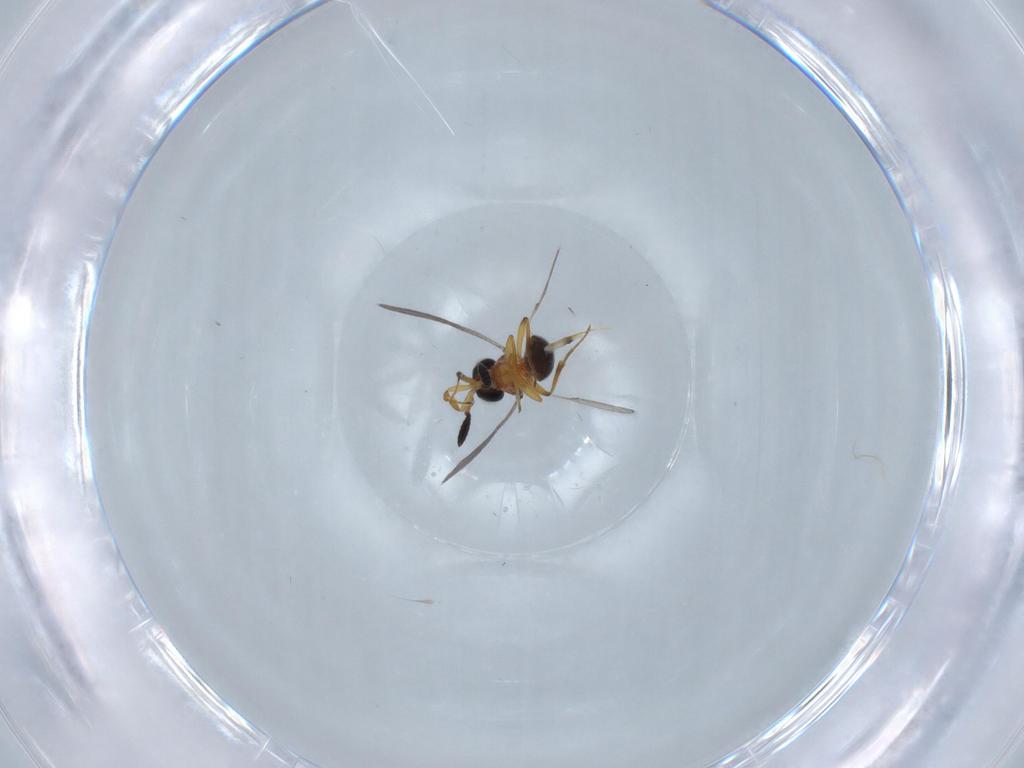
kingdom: Animalia
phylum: Arthropoda
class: Insecta
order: Hymenoptera
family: Scelionidae
